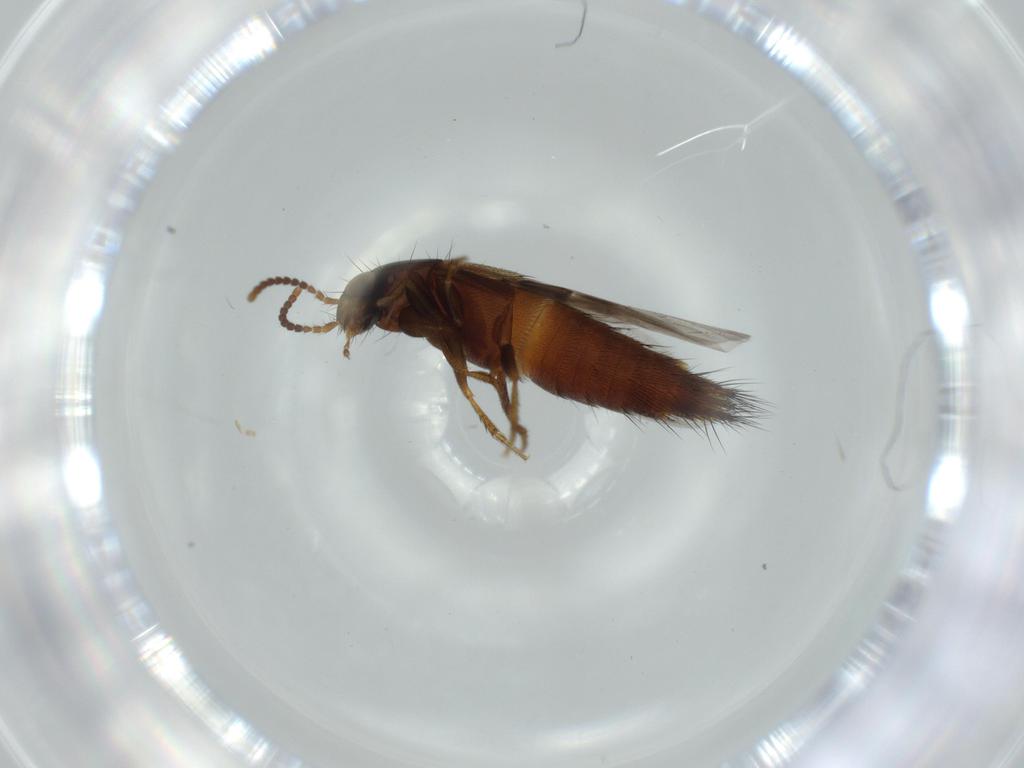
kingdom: Animalia
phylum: Arthropoda
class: Insecta
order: Coleoptera
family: Staphylinidae
